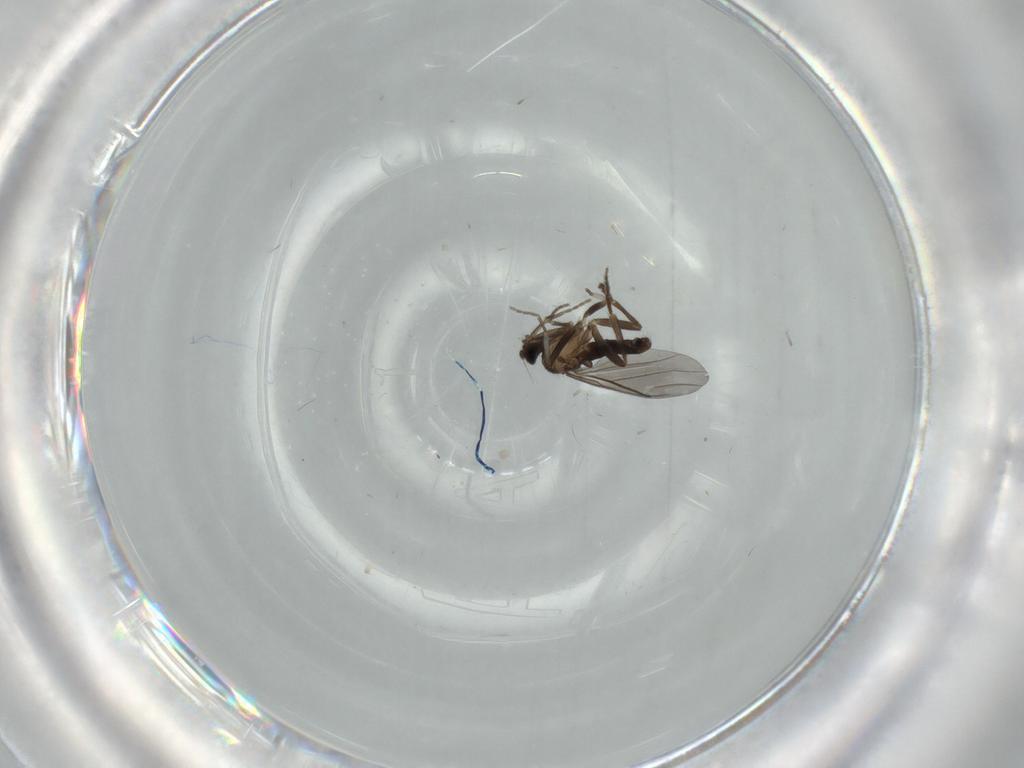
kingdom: Animalia
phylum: Arthropoda
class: Insecta
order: Diptera
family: Phoridae
